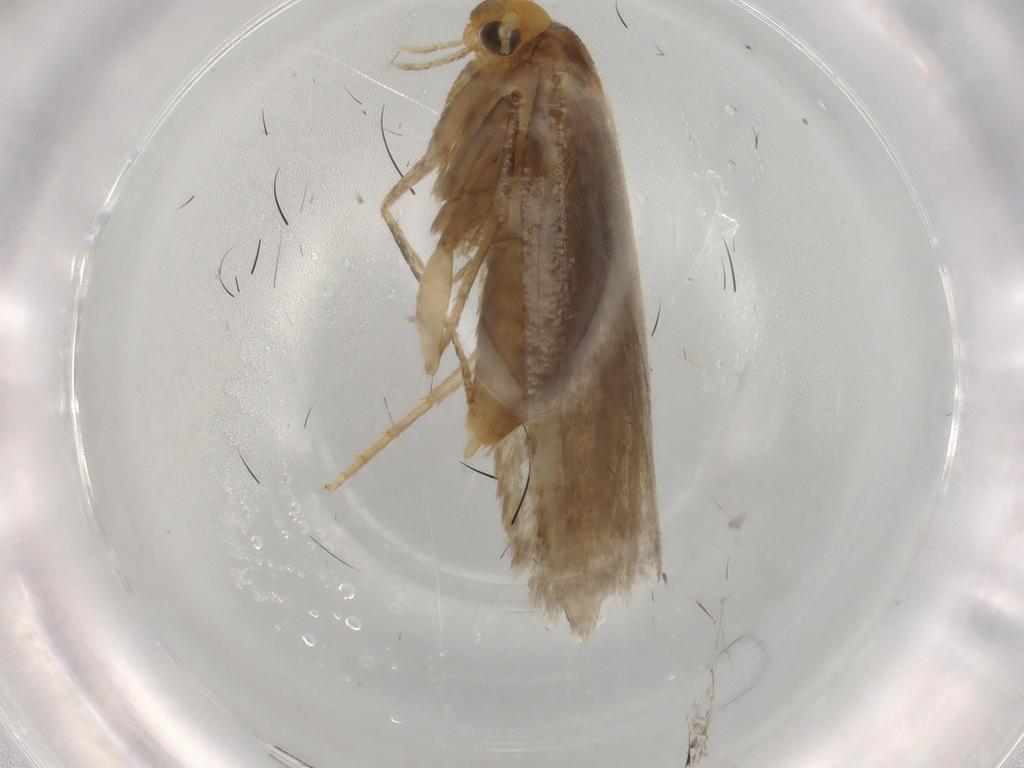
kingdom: Animalia
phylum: Arthropoda
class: Insecta
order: Lepidoptera
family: Argyresthiidae
